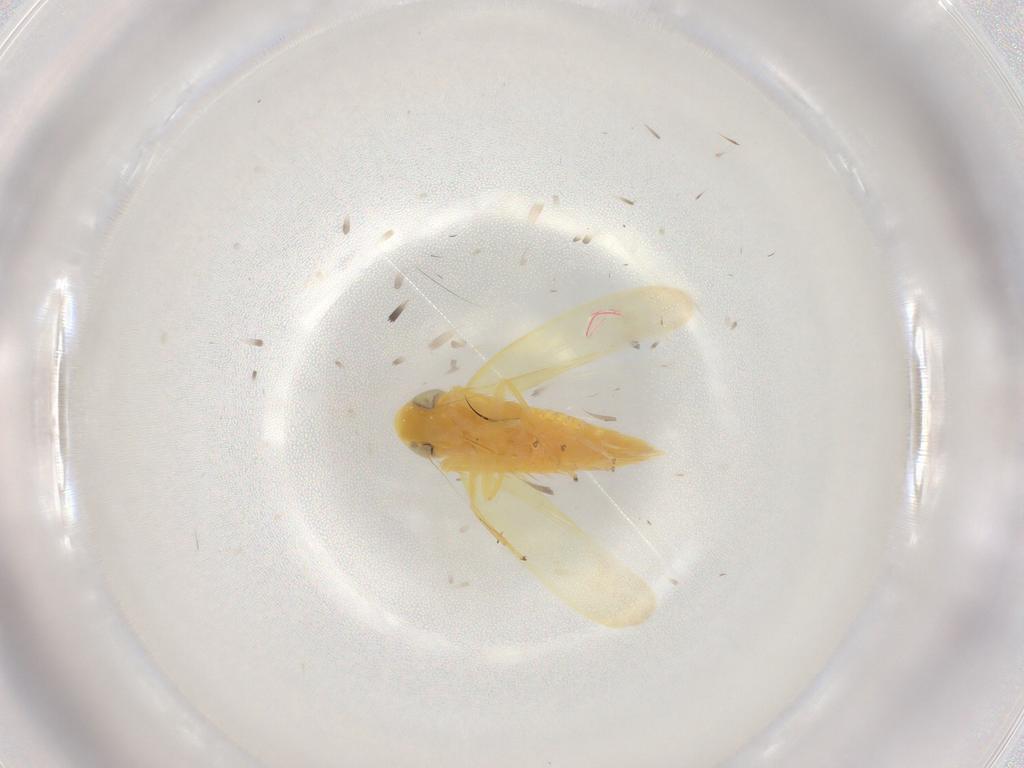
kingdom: Animalia
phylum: Arthropoda
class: Insecta
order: Hemiptera
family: Cicadellidae
